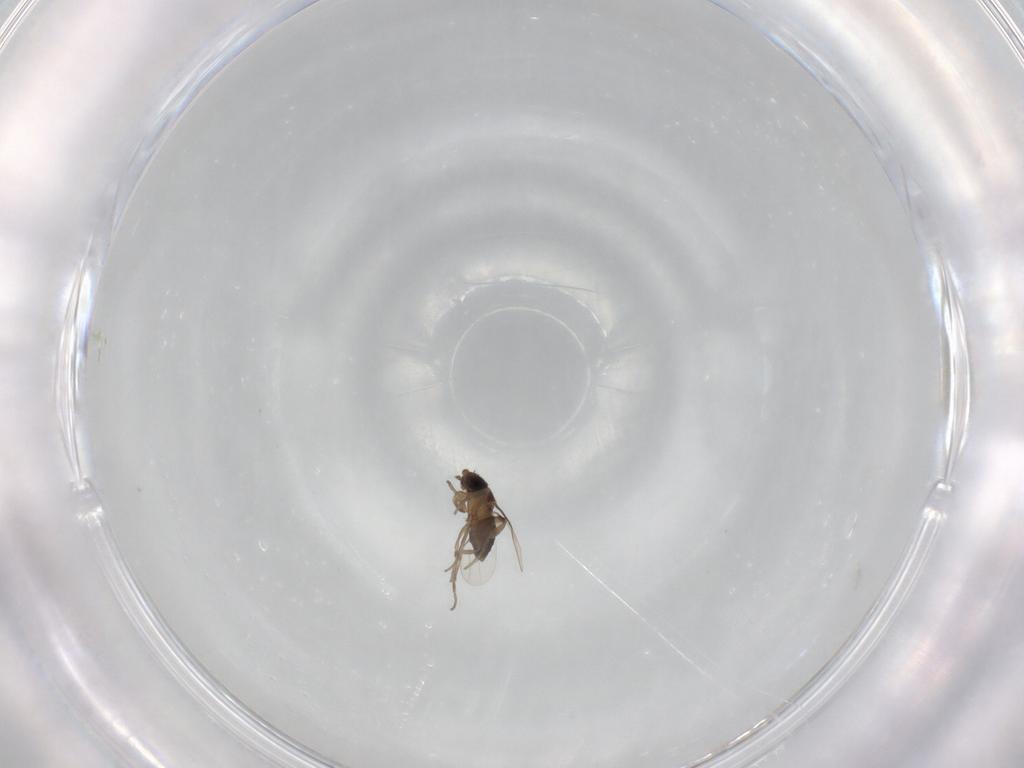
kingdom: Animalia
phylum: Arthropoda
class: Insecta
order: Diptera
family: Phoridae
